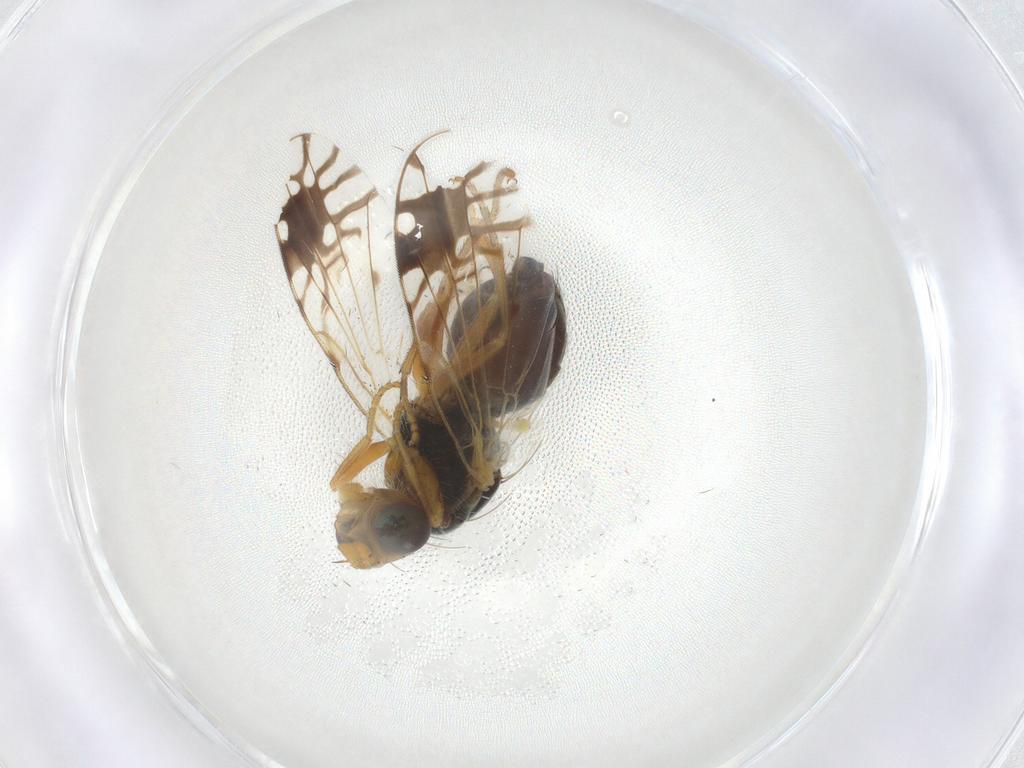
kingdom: Animalia
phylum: Arthropoda
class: Insecta
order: Diptera
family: Tephritidae
